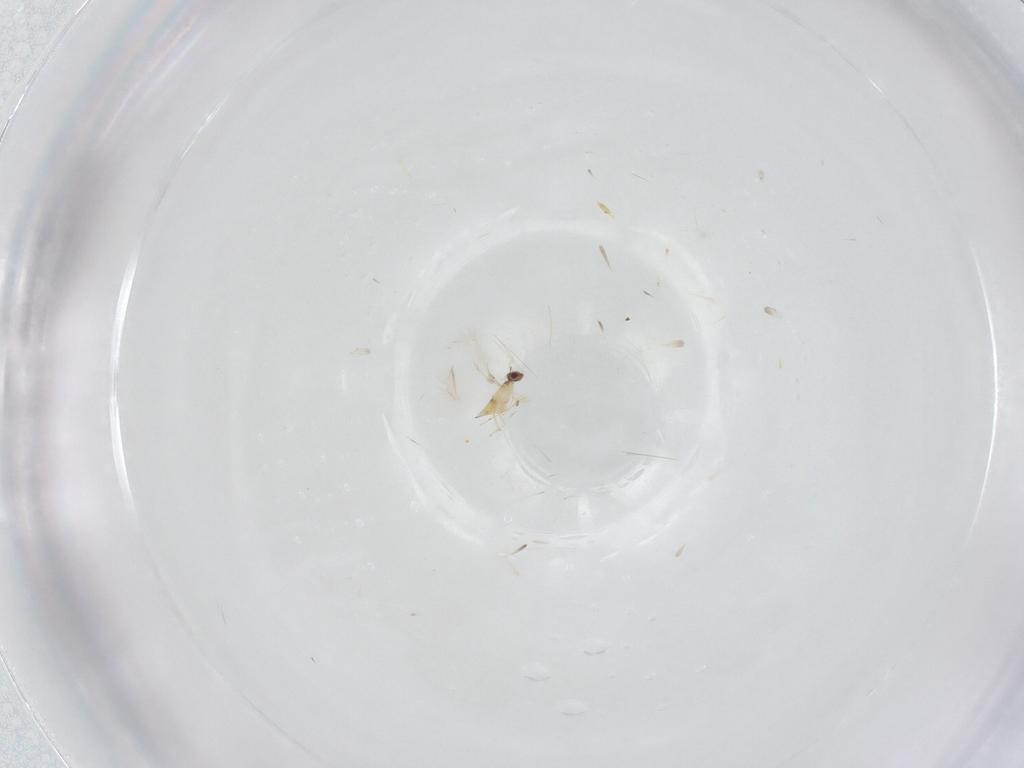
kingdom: Animalia
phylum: Arthropoda
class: Insecta
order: Hymenoptera
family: Mymaridae
